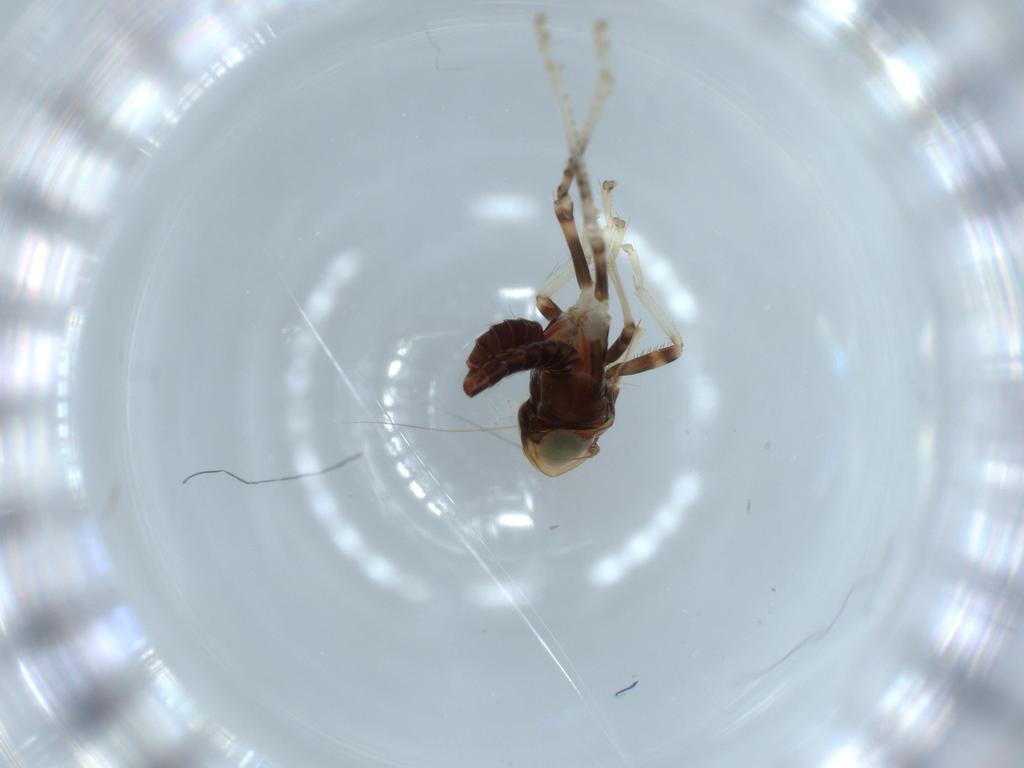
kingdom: Animalia
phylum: Arthropoda
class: Insecta
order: Hemiptera
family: Cicadellidae
